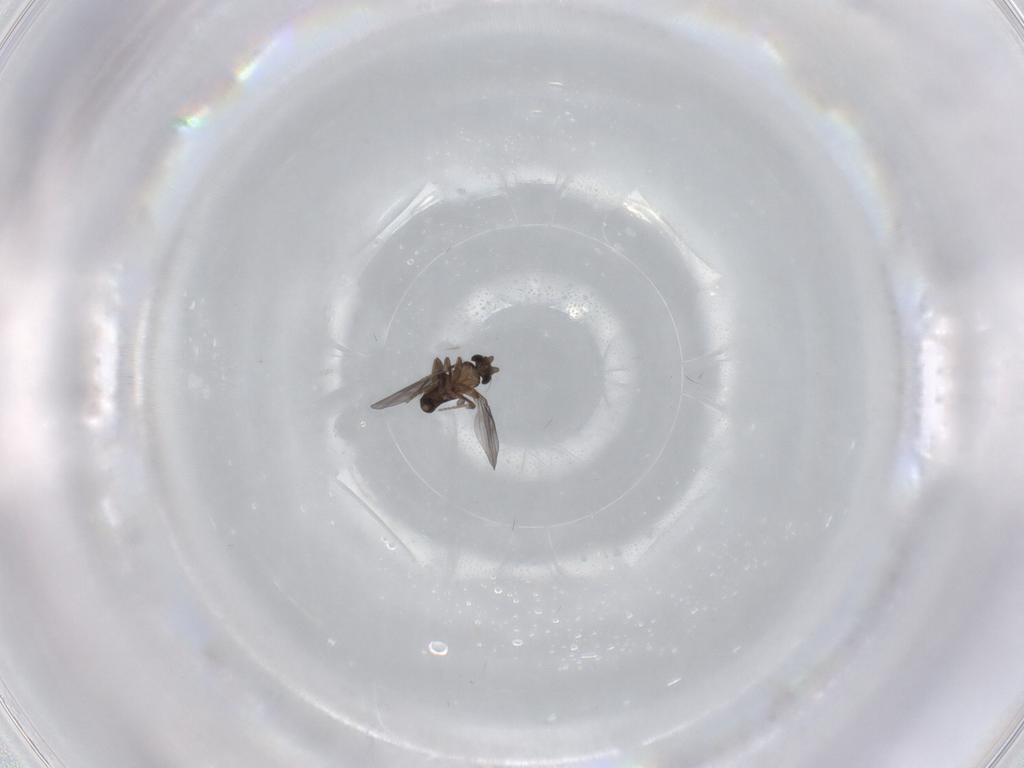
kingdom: Animalia
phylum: Arthropoda
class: Insecta
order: Diptera
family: Phoridae
